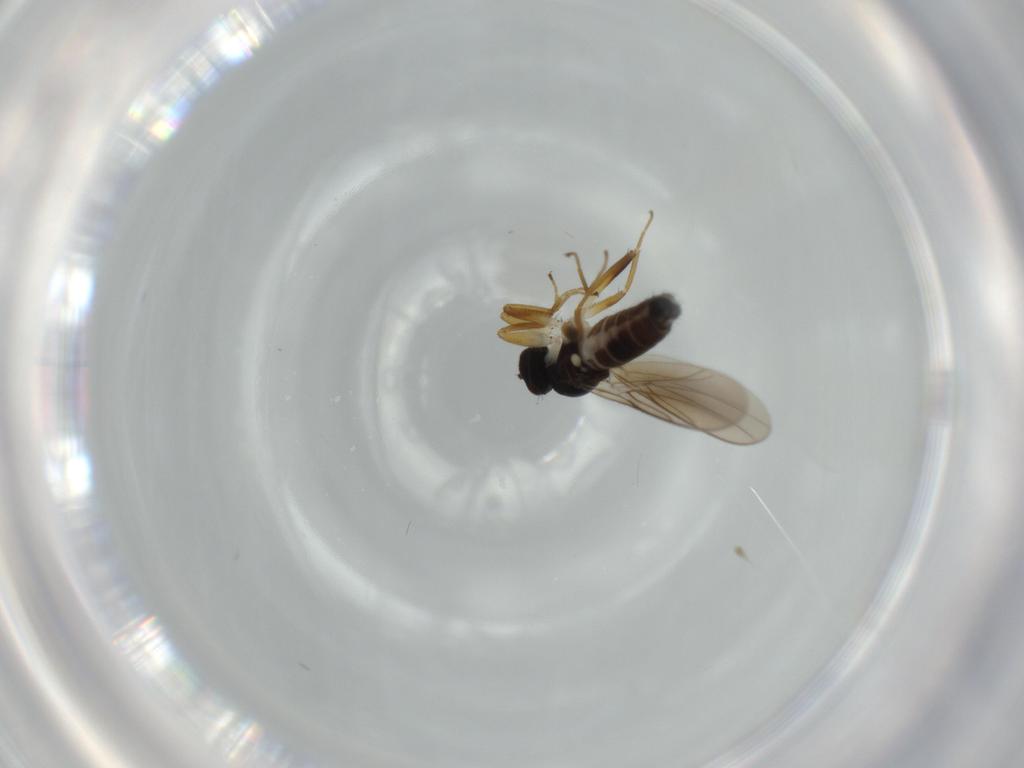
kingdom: Animalia
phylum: Arthropoda
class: Insecta
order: Diptera
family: Hybotidae
